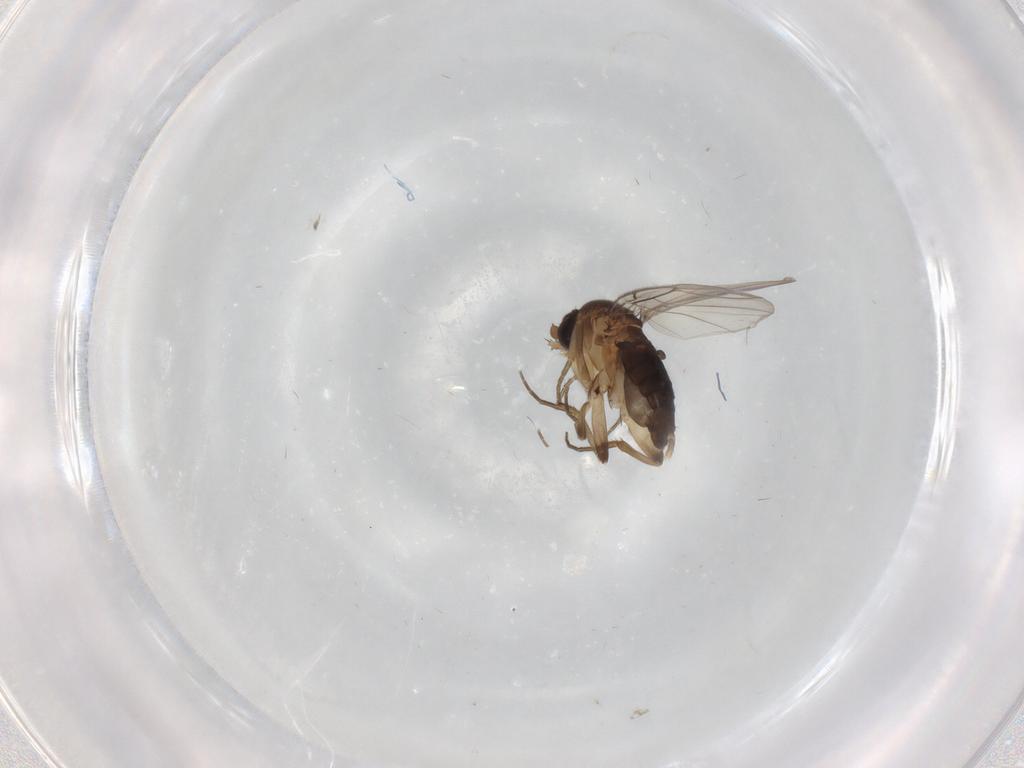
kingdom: Animalia
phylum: Arthropoda
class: Insecta
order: Diptera
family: Phoridae
